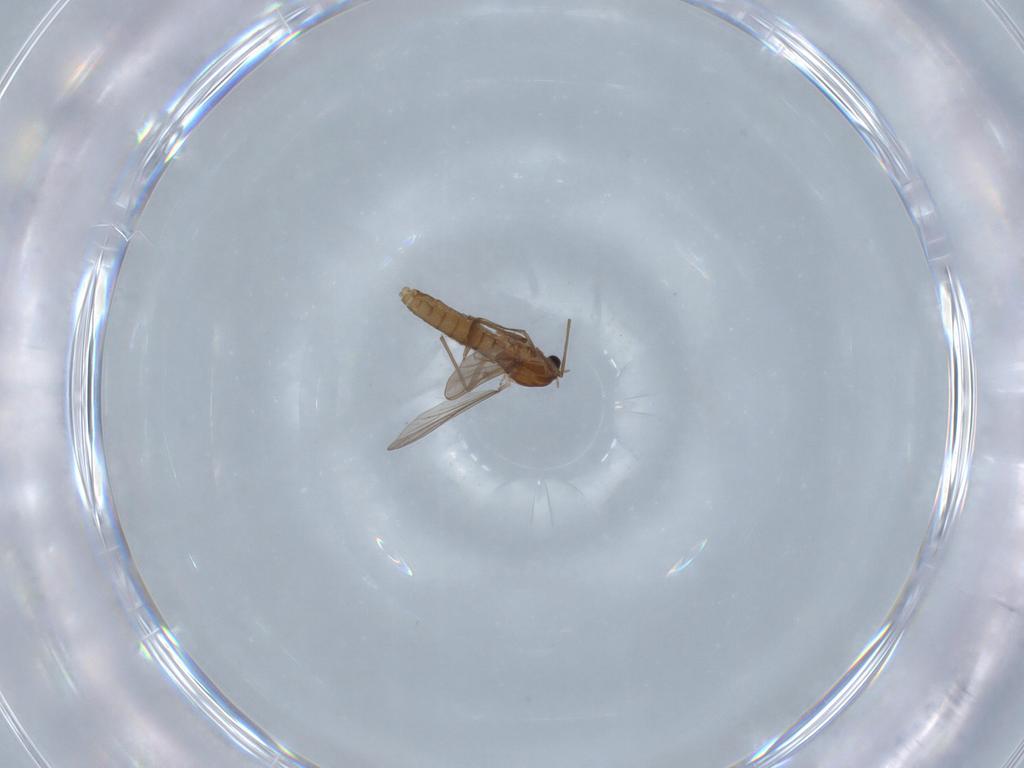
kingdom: Animalia
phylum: Arthropoda
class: Insecta
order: Diptera
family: Chironomidae
